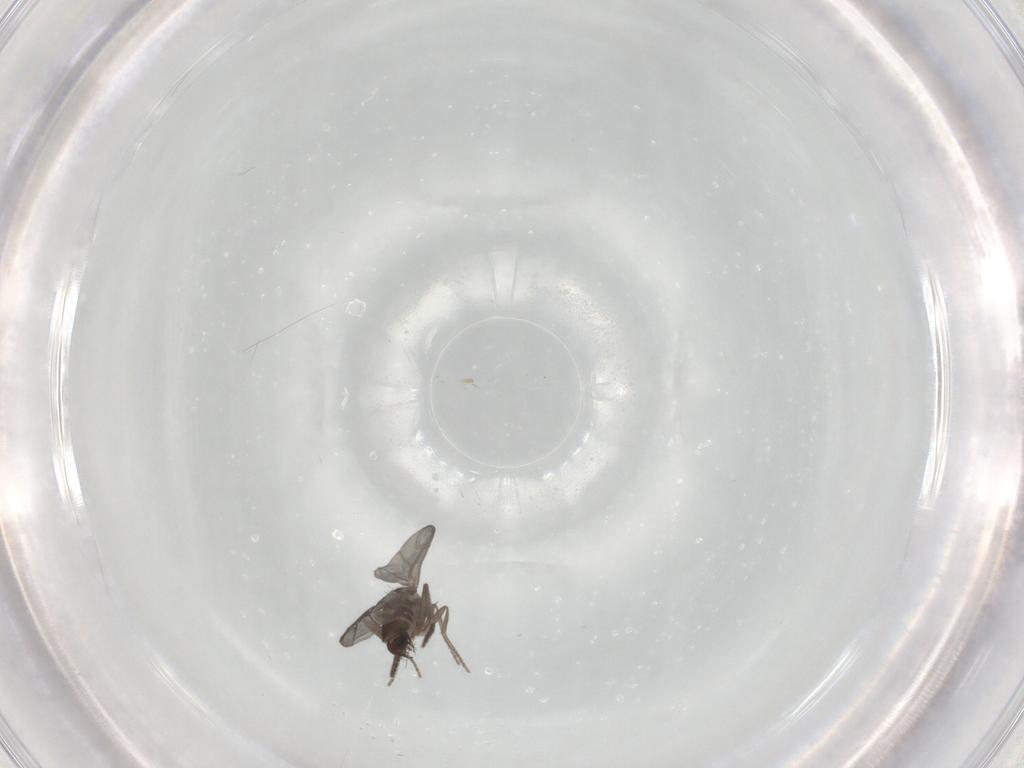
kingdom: Animalia
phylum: Arthropoda
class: Insecta
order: Diptera
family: Phoridae
